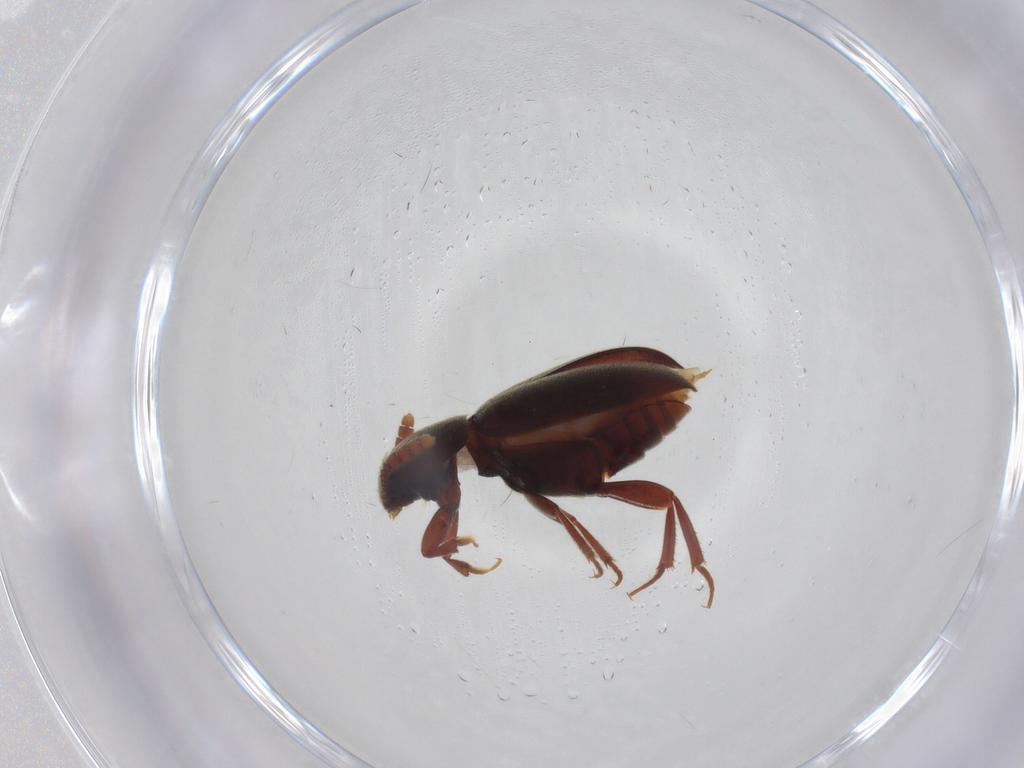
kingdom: Animalia
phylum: Arthropoda
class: Insecta
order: Coleoptera
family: Leiodidae
